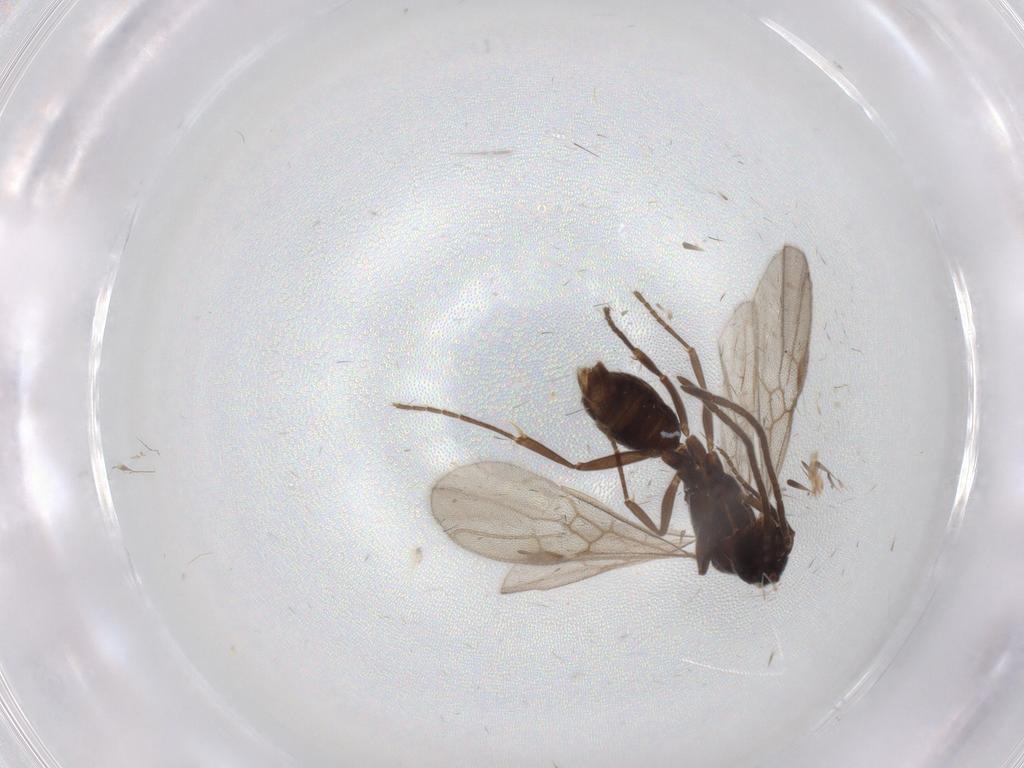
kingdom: Animalia
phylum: Arthropoda
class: Insecta
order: Hymenoptera
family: Formicidae
